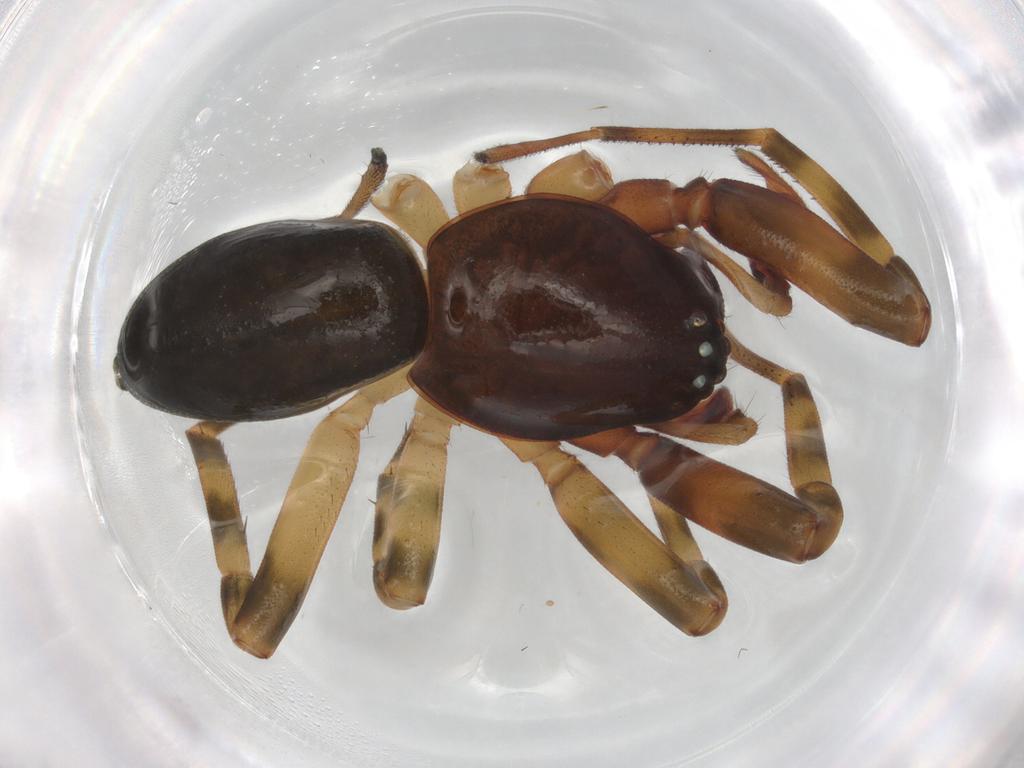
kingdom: Animalia
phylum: Arthropoda
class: Arachnida
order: Araneae
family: Trachelidae
